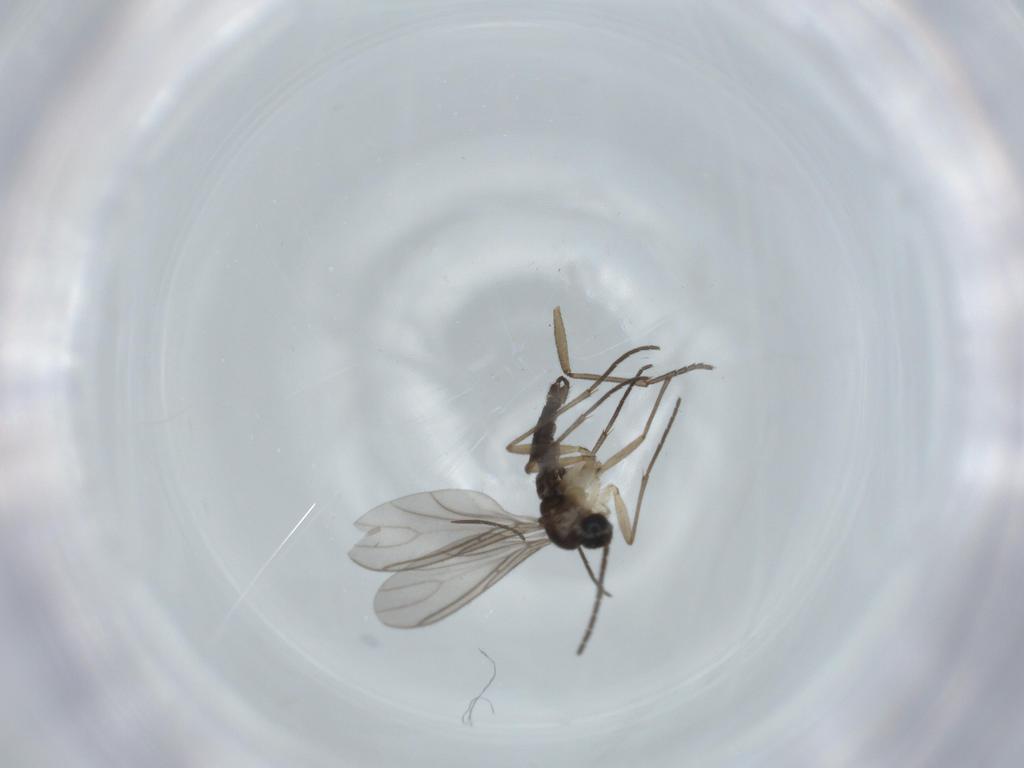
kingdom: Animalia
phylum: Arthropoda
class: Insecta
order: Diptera
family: Sciaridae
